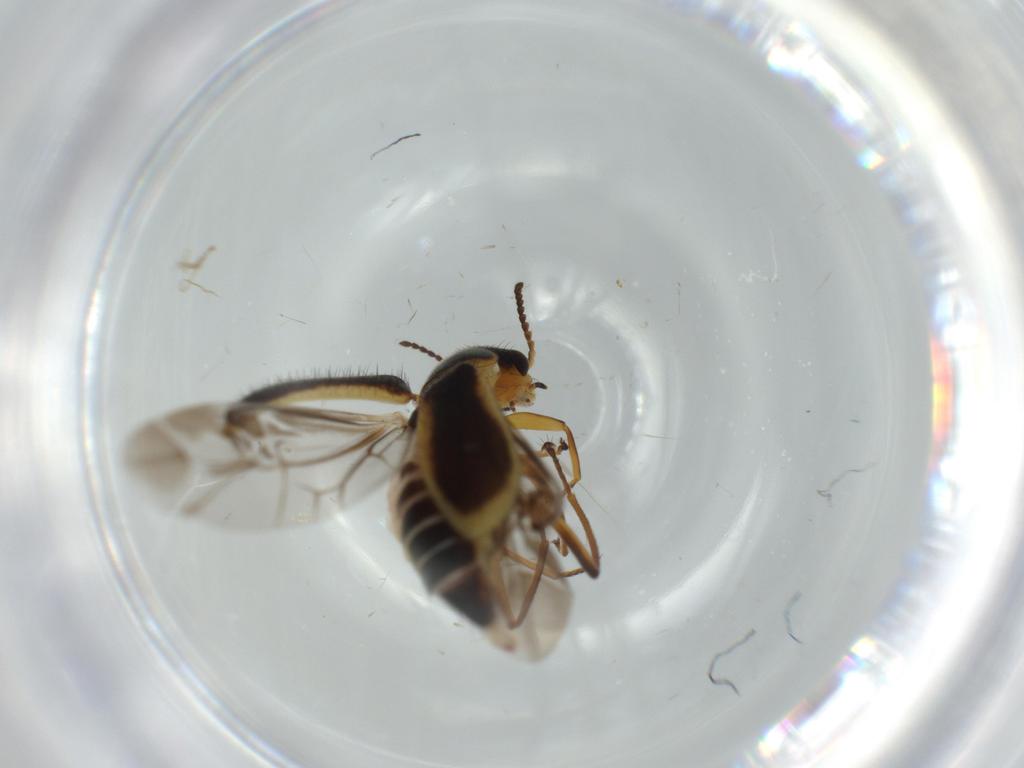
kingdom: Animalia
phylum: Arthropoda
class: Insecta
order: Coleoptera
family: Melyridae
